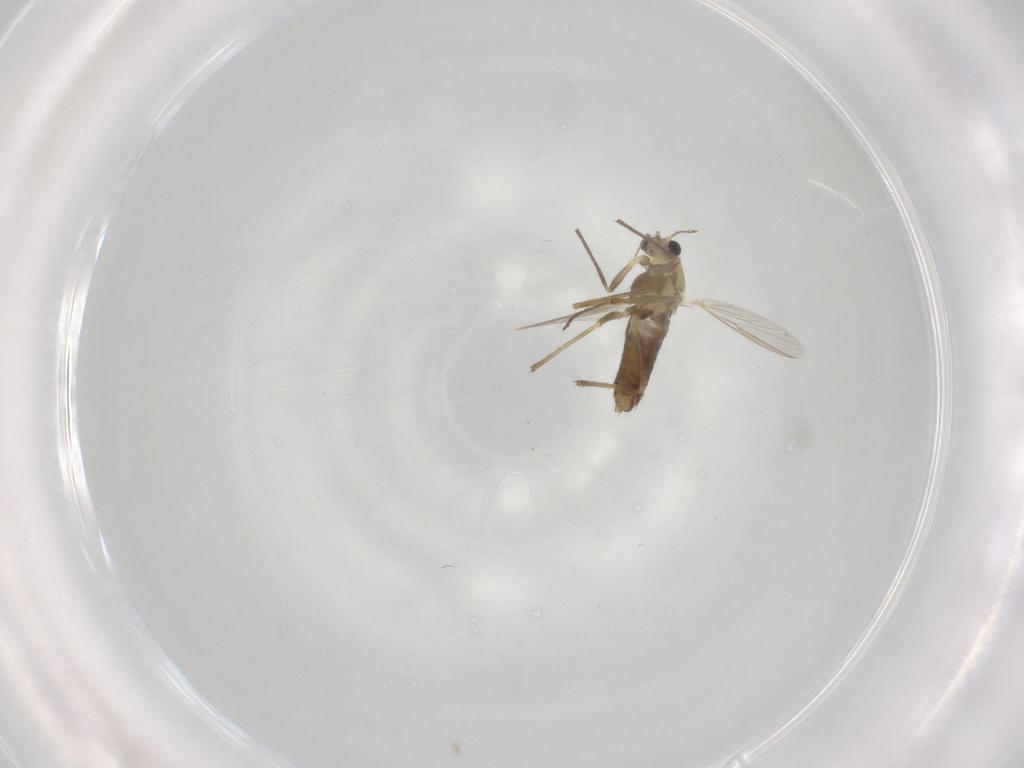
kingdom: Animalia
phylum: Arthropoda
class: Insecta
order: Diptera
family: Chironomidae
